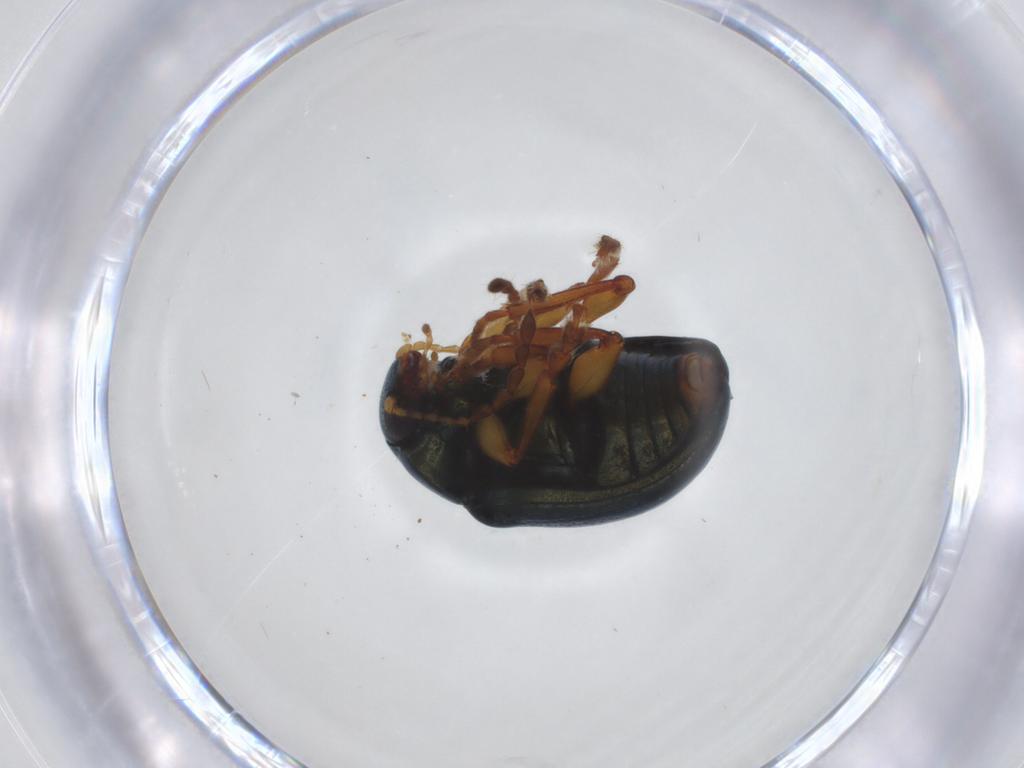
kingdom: Animalia
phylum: Arthropoda
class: Insecta
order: Coleoptera
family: Chrysomelidae
